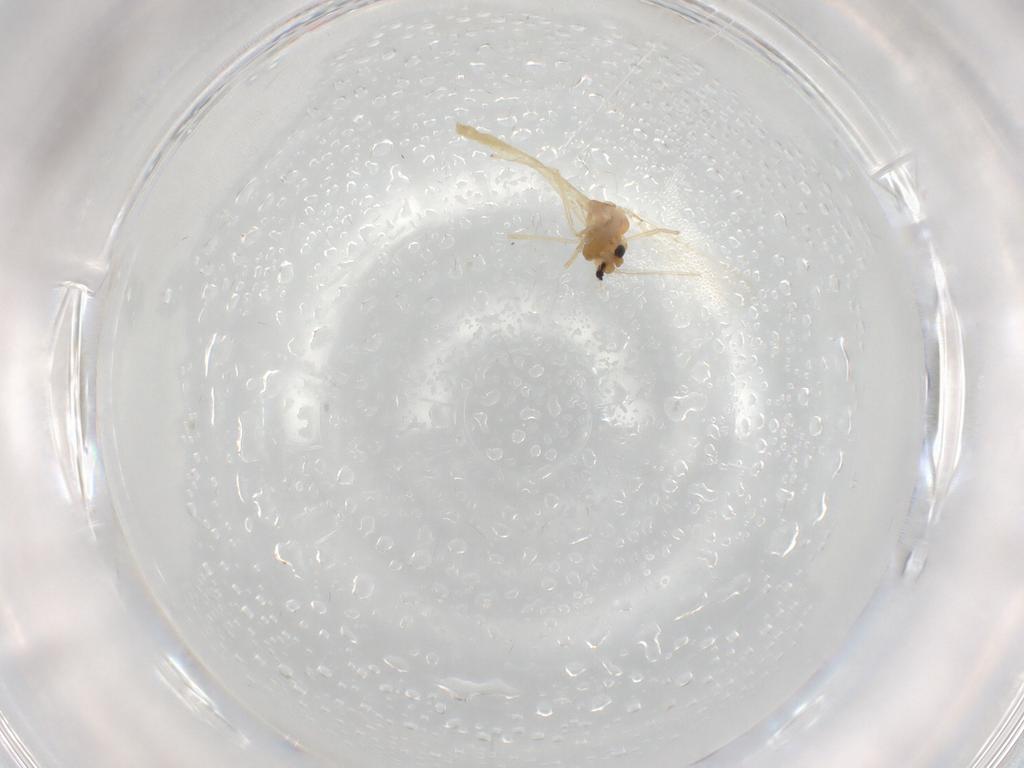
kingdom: Animalia
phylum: Arthropoda
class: Insecta
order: Diptera
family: Chironomidae
